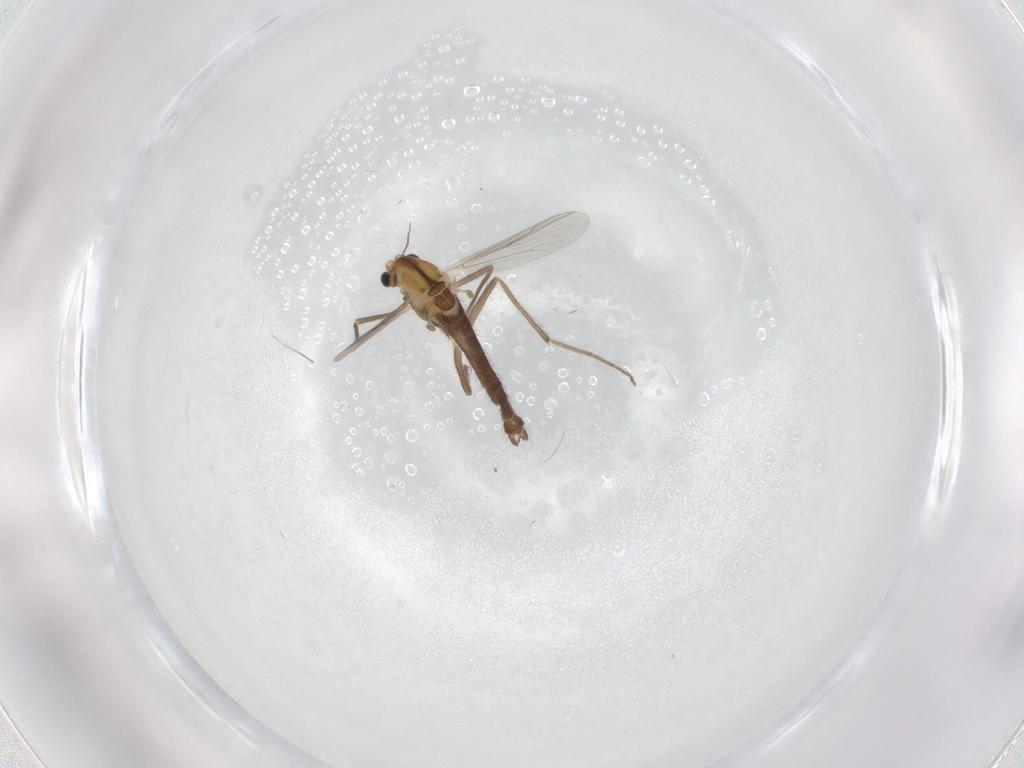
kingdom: Animalia
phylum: Arthropoda
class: Insecta
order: Diptera
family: Chironomidae
